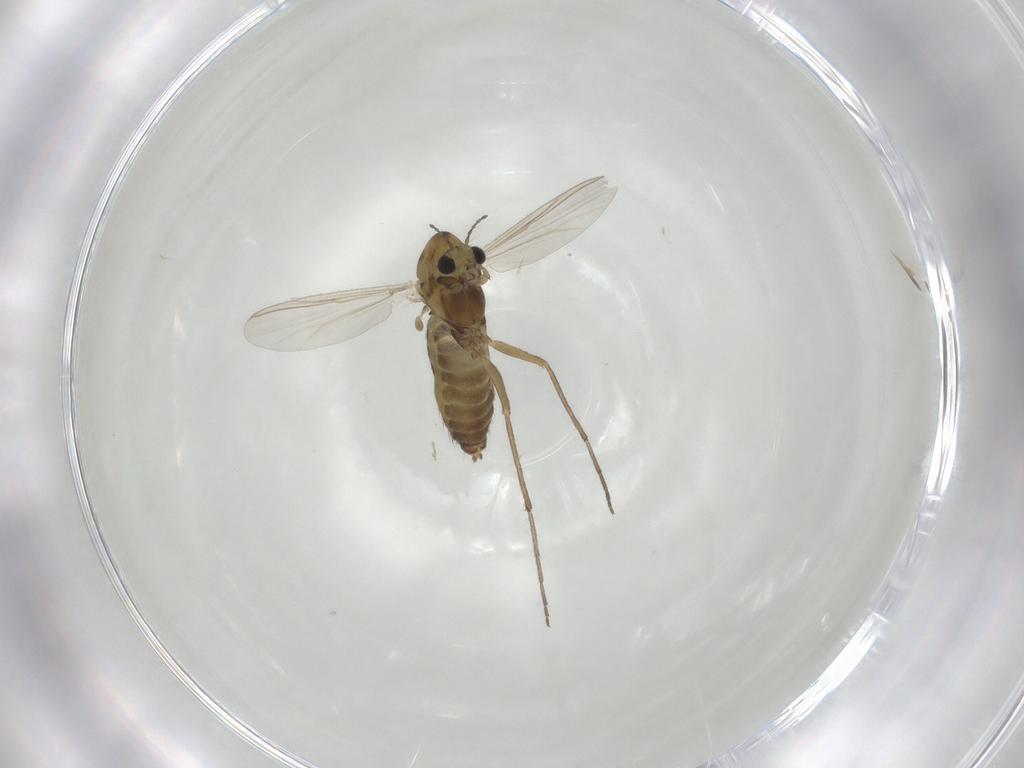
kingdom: Animalia
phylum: Arthropoda
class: Insecta
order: Diptera
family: Chironomidae
